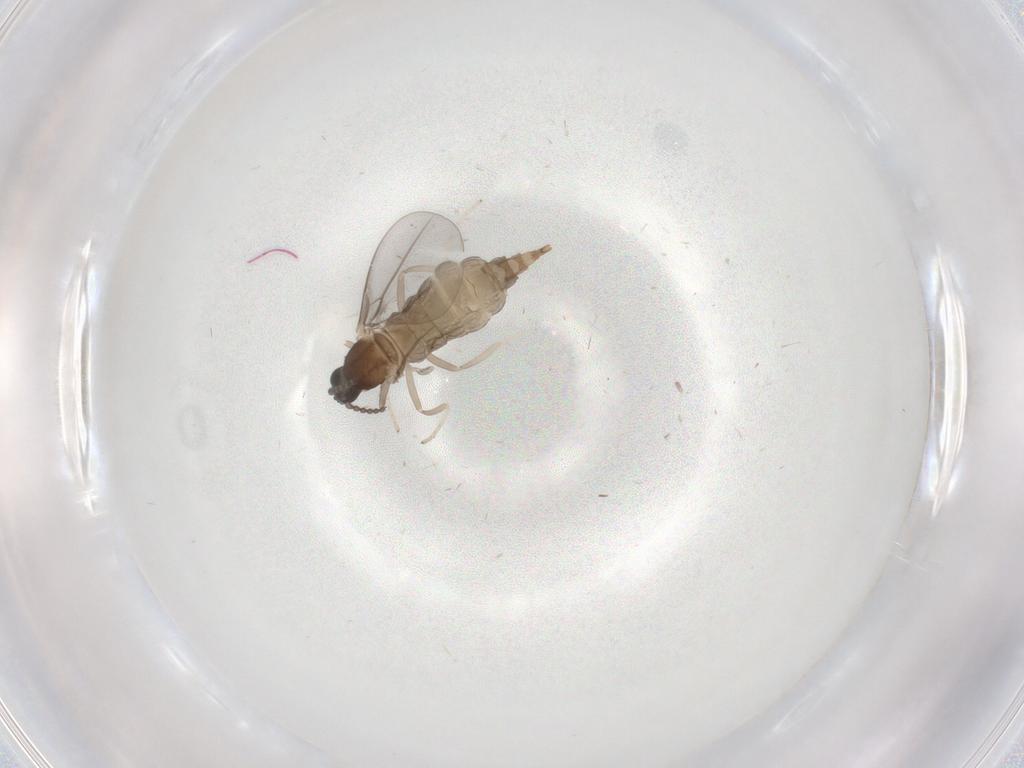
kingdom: Animalia
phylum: Arthropoda
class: Insecta
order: Diptera
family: Cecidomyiidae
